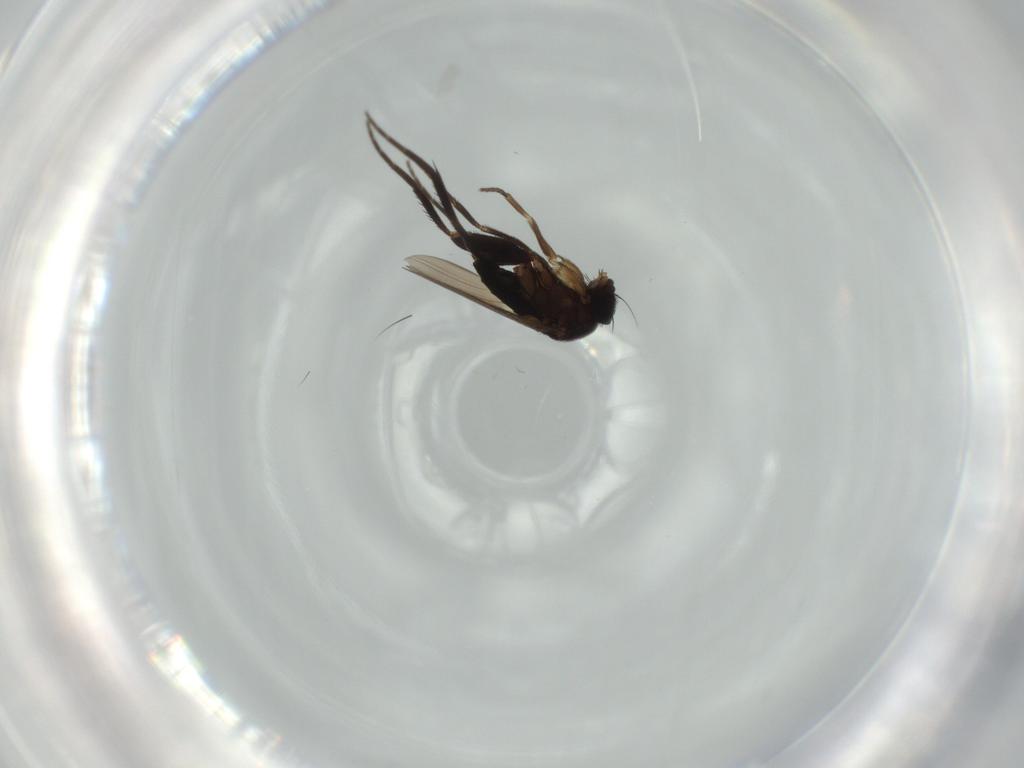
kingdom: Animalia
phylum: Arthropoda
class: Insecta
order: Diptera
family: Phoridae
